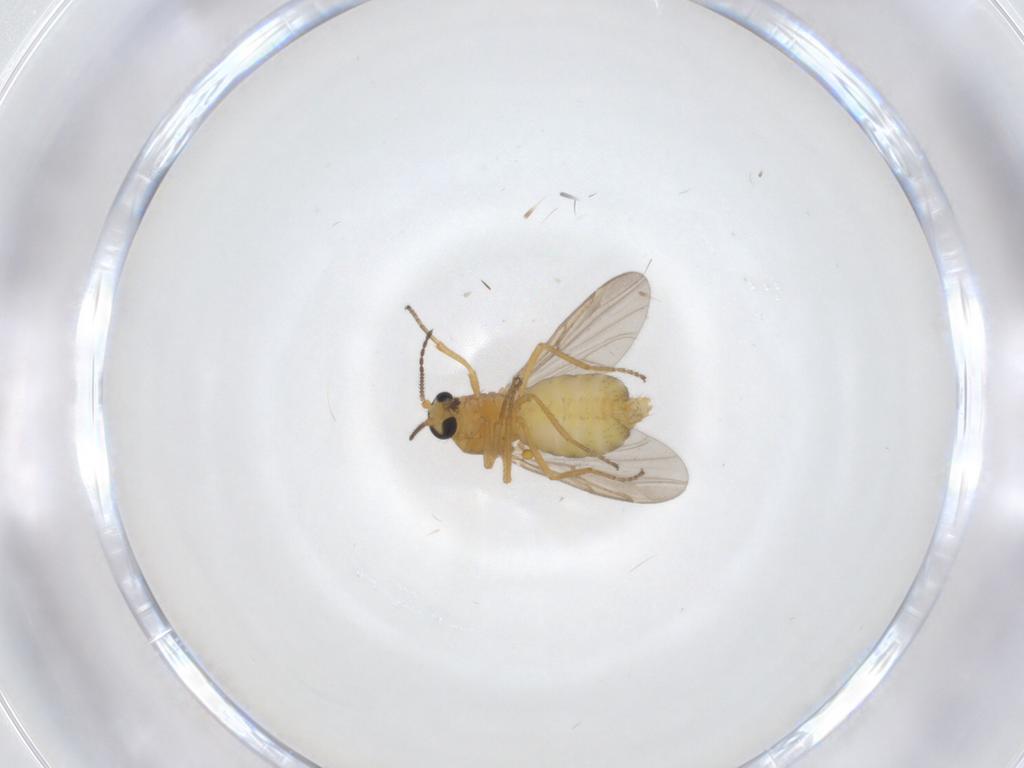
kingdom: Animalia
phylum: Arthropoda
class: Insecta
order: Diptera
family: Ceratopogonidae
